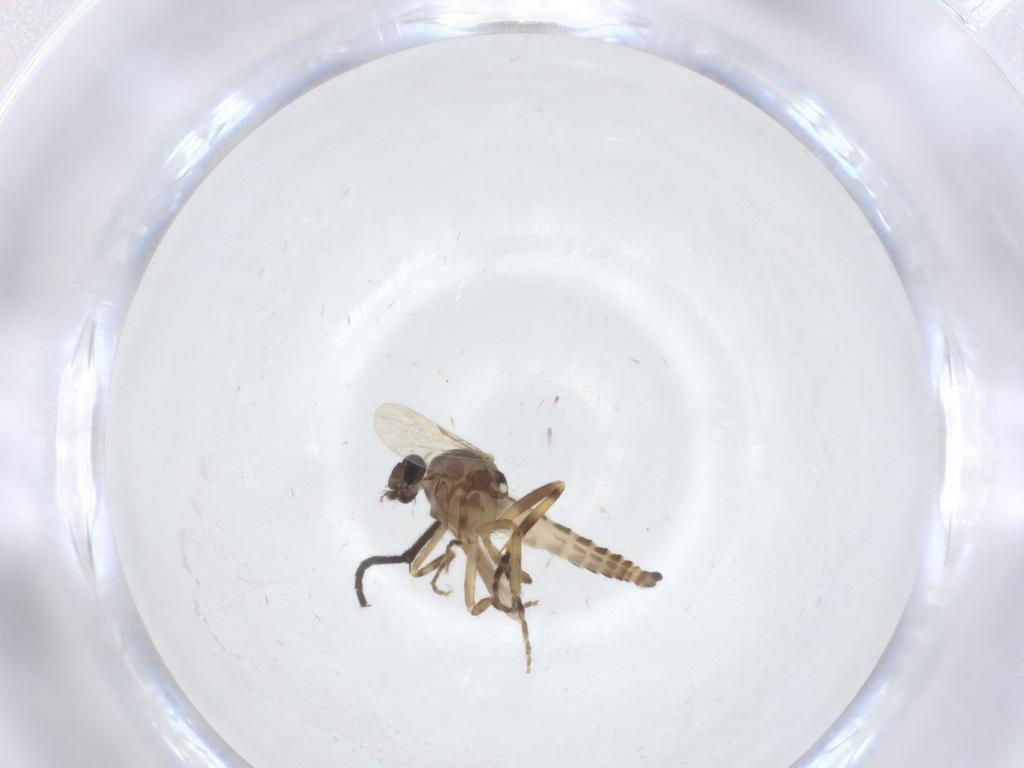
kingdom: Animalia
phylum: Arthropoda
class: Insecta
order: Diptera
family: Ceratopogonidae
